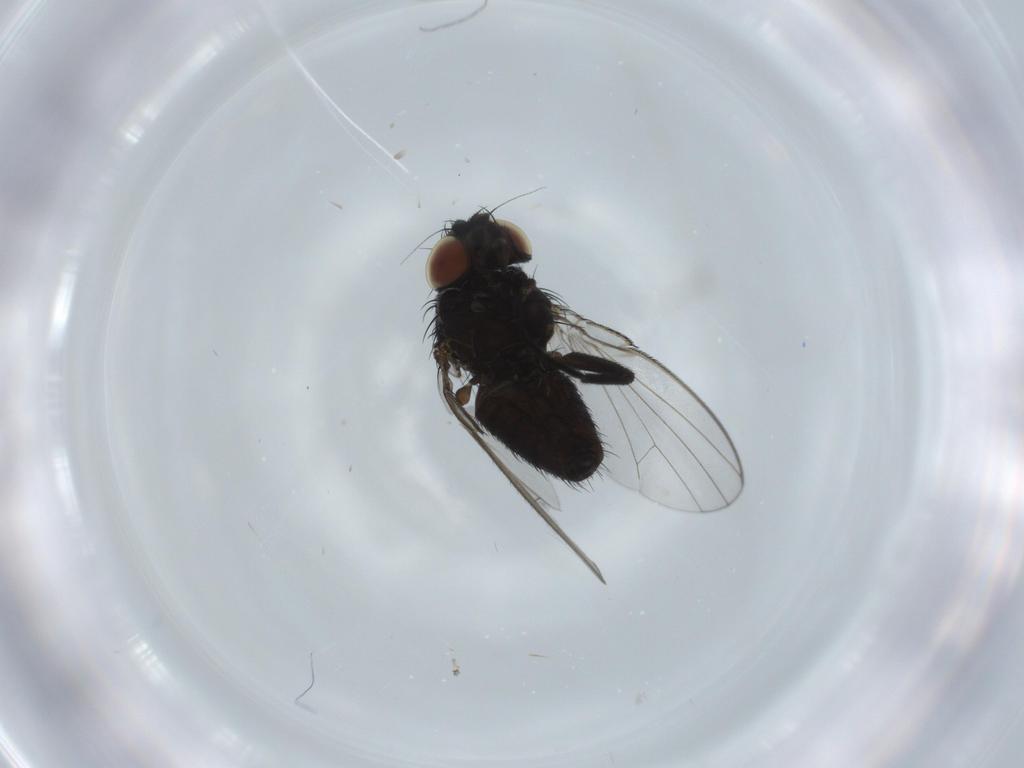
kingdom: Animalia
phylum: Arthropoda
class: Insecta
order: Diptera
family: Milichiidae
